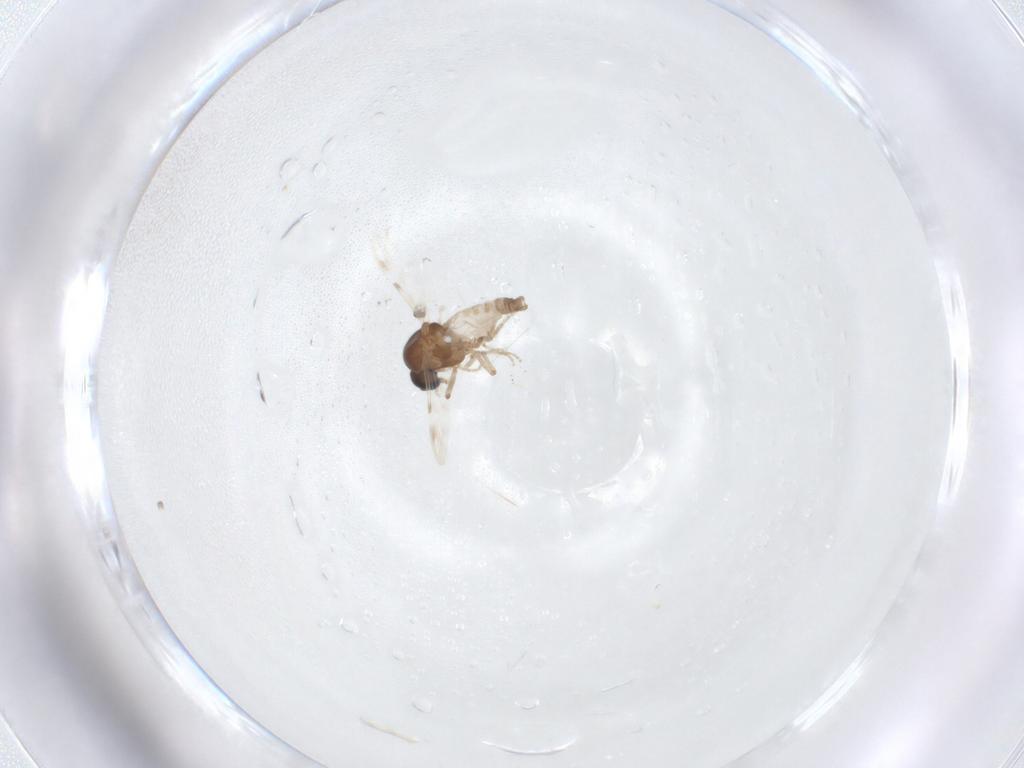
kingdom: Animalia
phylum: Arthropoda
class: Insecta
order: Diptera
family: Ceratopogonidae
